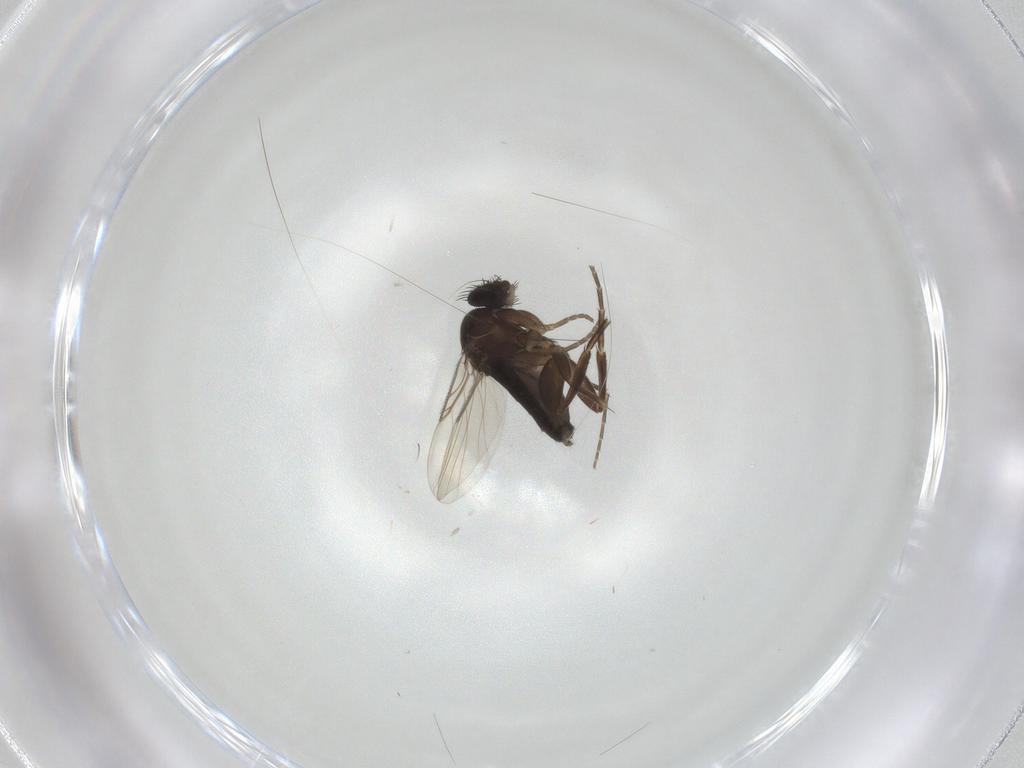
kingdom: Animalia
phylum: Arthropoda
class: Insecta
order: Diptera
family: Phoridae
